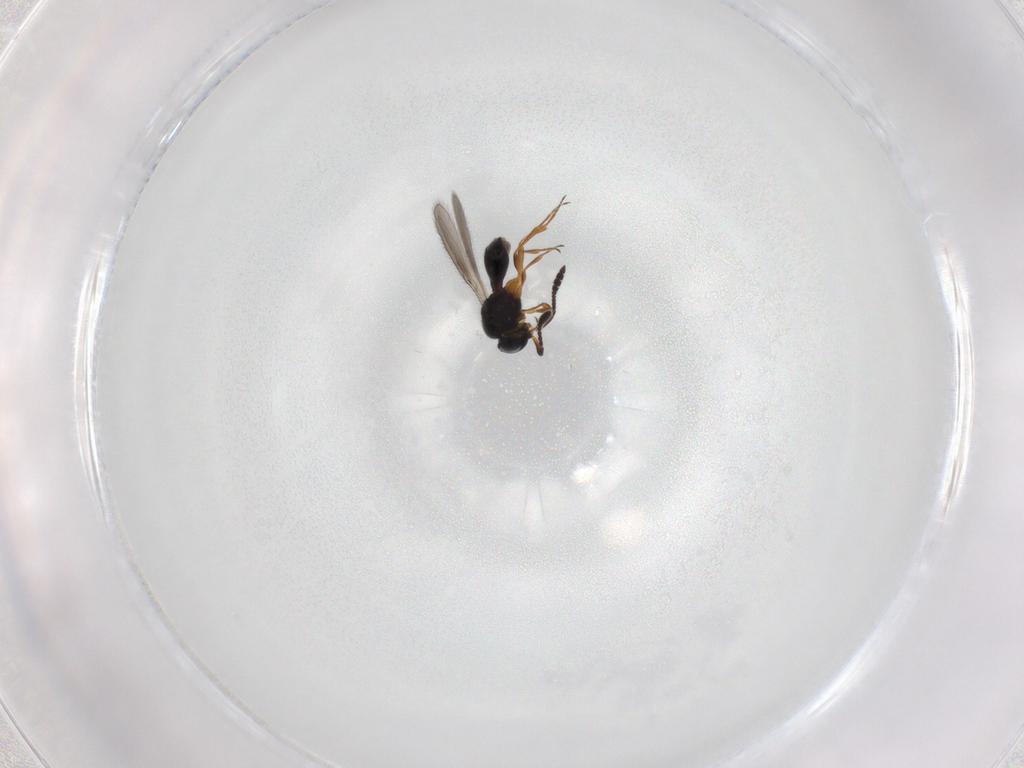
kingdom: Animalia
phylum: Arthropoda
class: Insecta
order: Hymenoptera
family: Scelionidae
